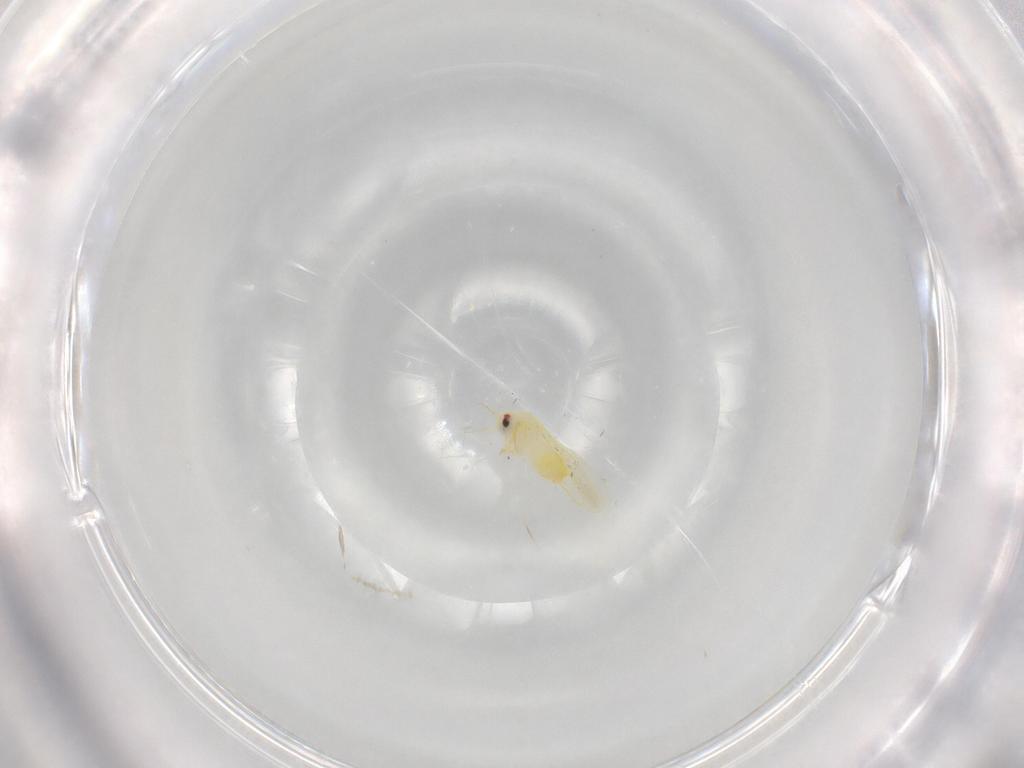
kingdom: Animalia
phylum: Arthropoda
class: Insecta
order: Hemiptera
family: Aleyrodidae
